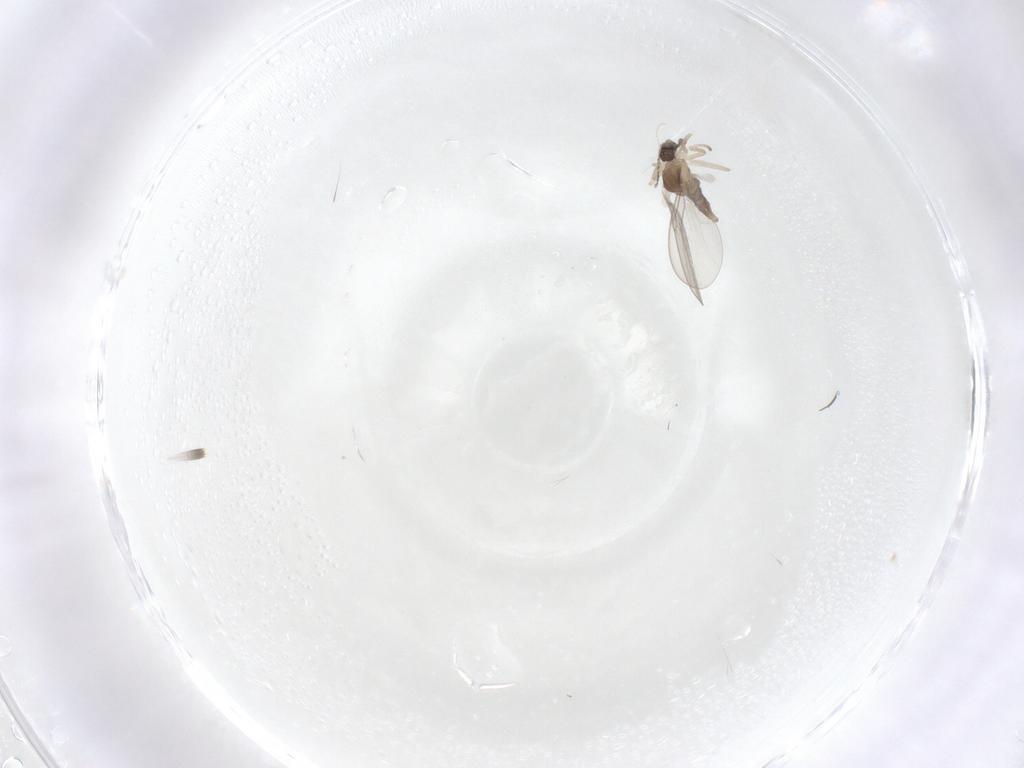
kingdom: Animalia
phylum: Arthropoda
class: Insecta
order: Diptera
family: Cecidomyiidae
